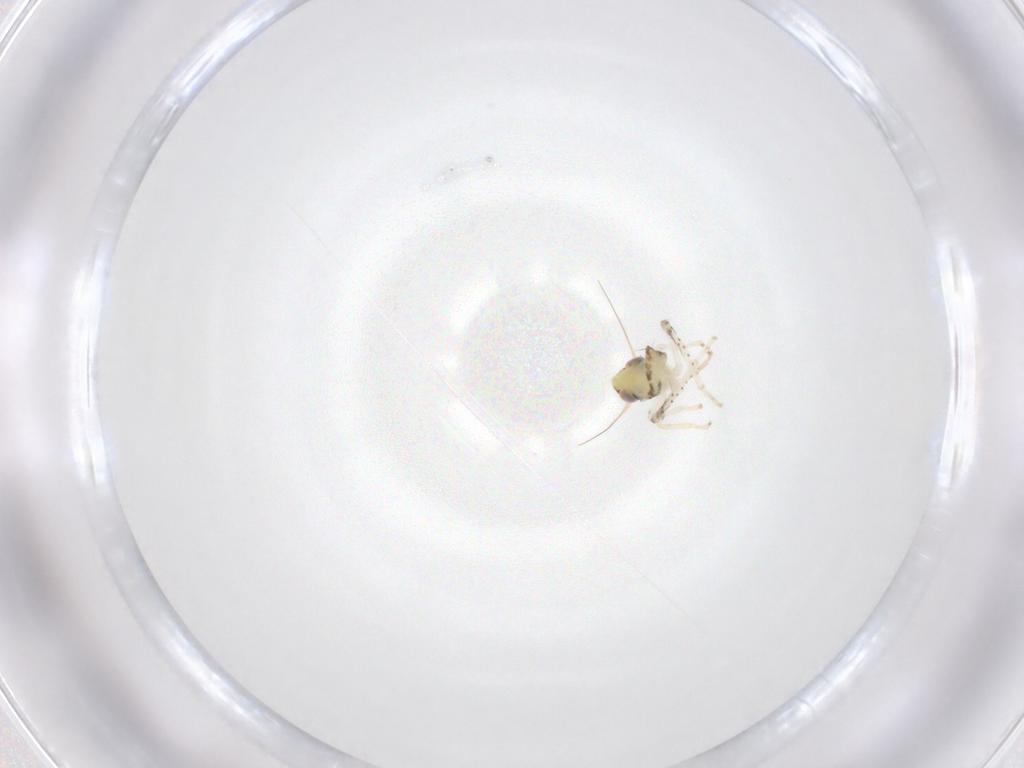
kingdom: Animalia
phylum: Arthropoda
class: Insecta
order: Hemiptera
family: Cicadellidae
